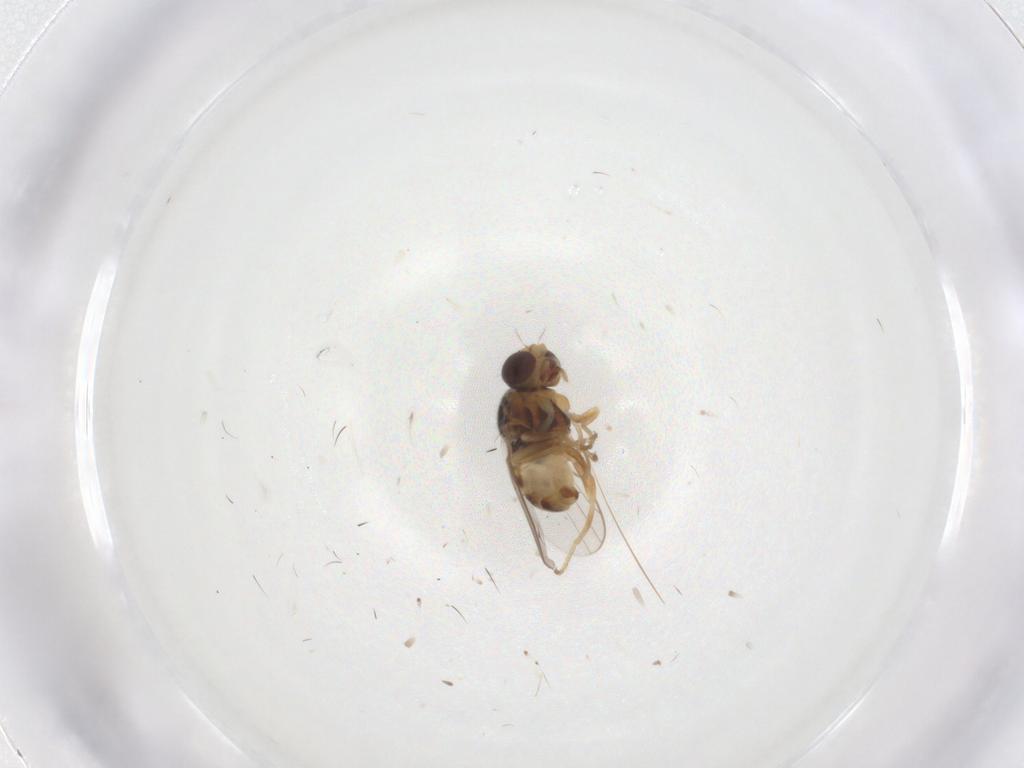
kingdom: Animalia
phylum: Arthropoda
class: Insecta
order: Diptera
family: Chloropidae
